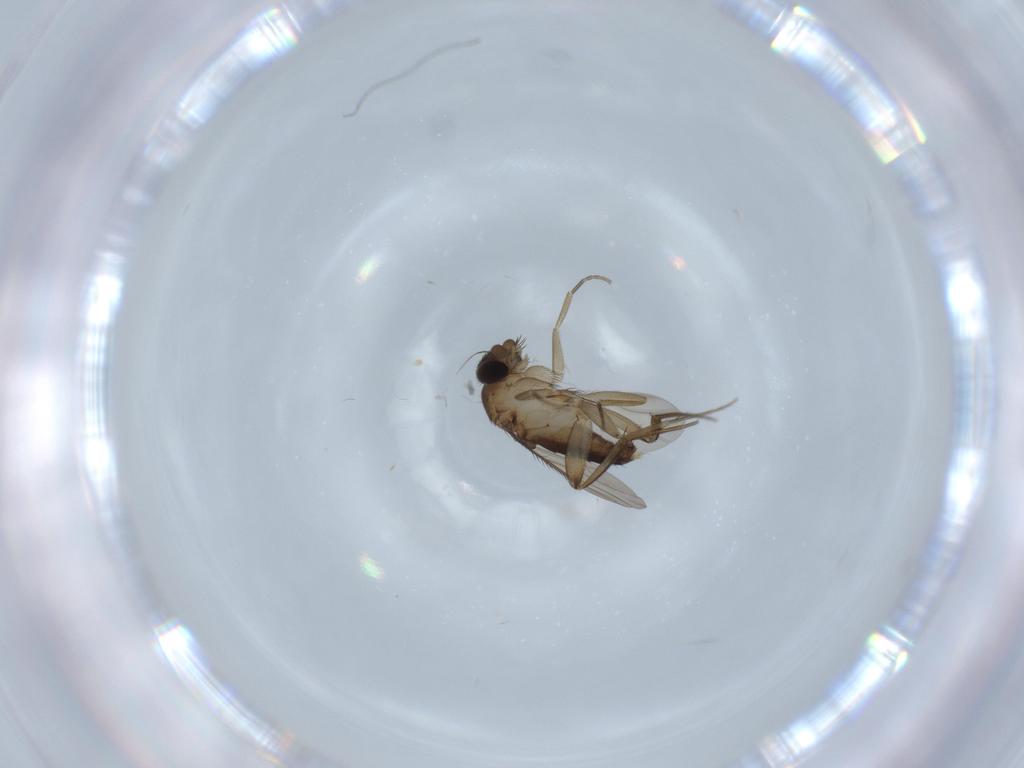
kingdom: Animalia
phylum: Arthropoda
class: Insecta
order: Diptera
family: Phoridae
